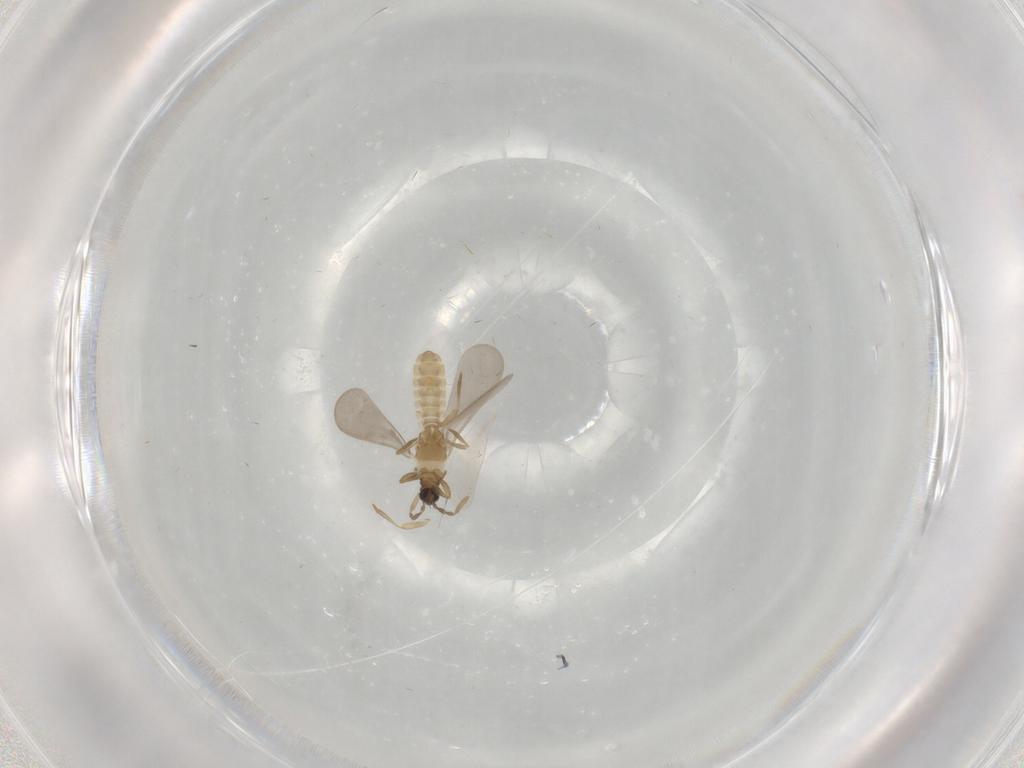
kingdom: Animalia
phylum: Arthropoda
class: Insecta
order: Hemiptera
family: Enicocephalidae
